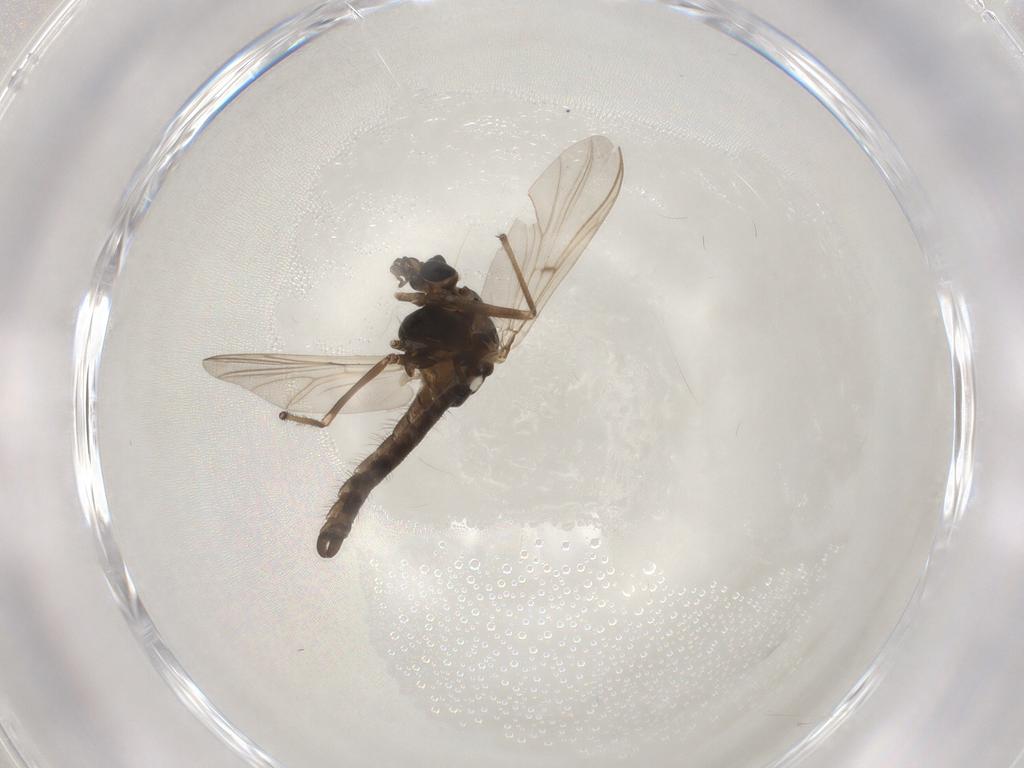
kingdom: Animalia
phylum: Arthropoda
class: Insecta
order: Diptera
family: Chironomidae
